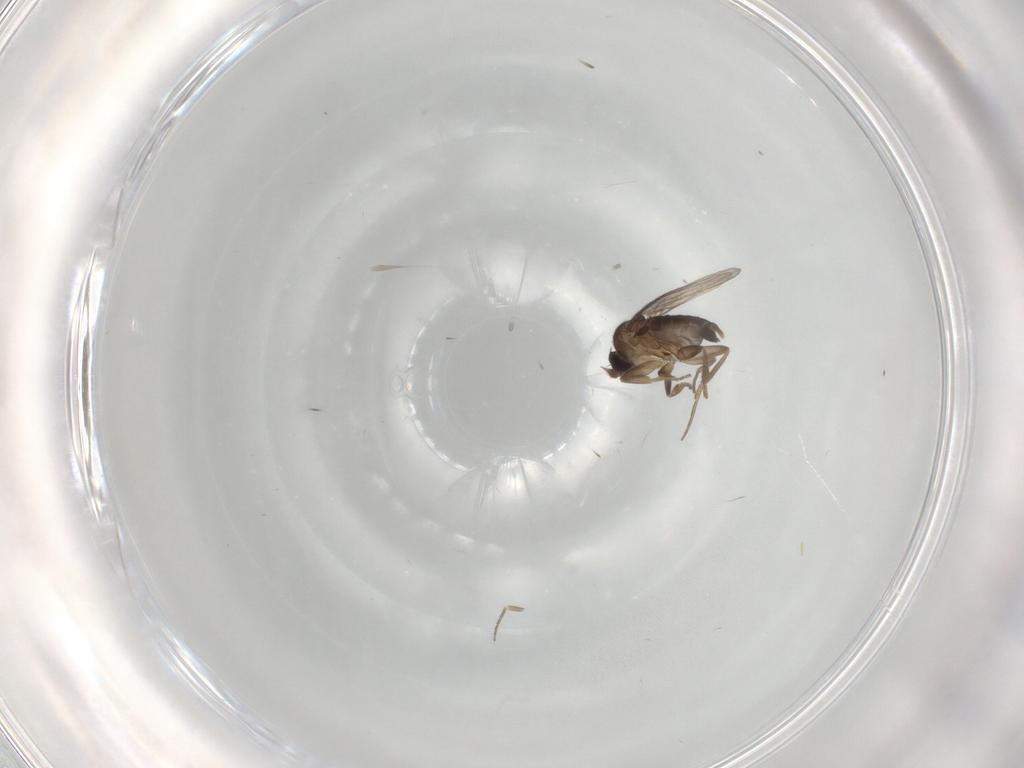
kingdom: Animalia
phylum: Arthropoda
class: Insecta
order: Diptera
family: Phoridae
